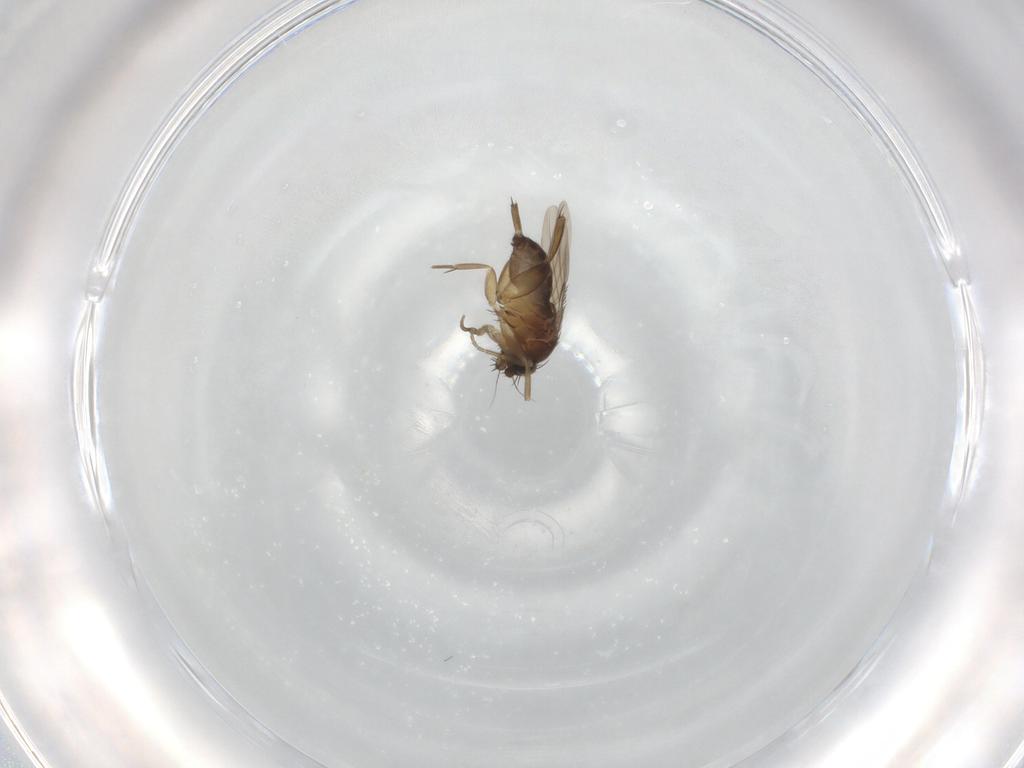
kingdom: Animalia
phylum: Arthropoda
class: Insecta
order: Diptera
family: Phoridae
